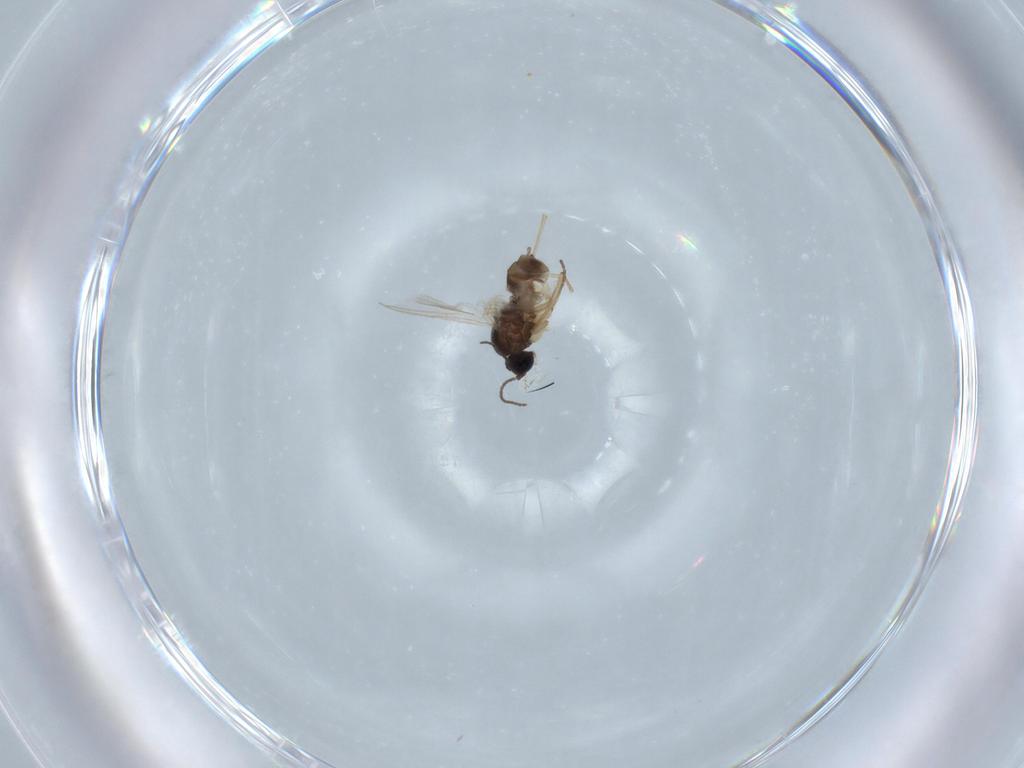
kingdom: Animalia
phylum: Arthropoda
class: Insecta
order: Diptera
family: Sciaridae
